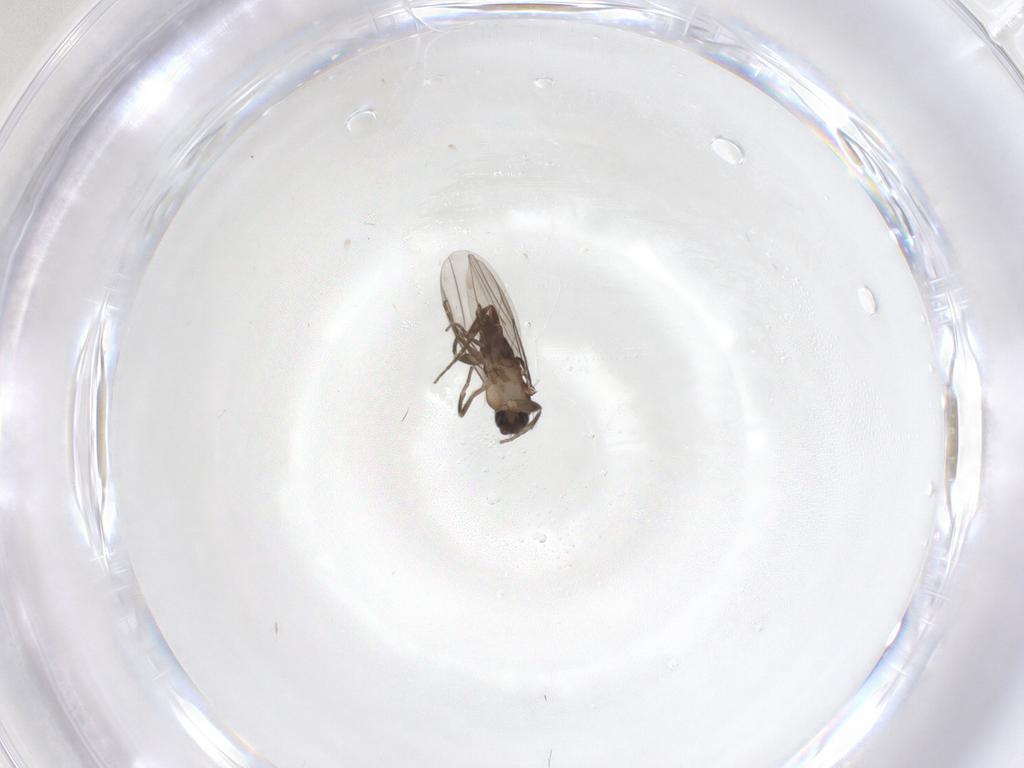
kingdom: Animalia
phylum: Arthropoda
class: Insecta
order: Diptera
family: Phoridae
